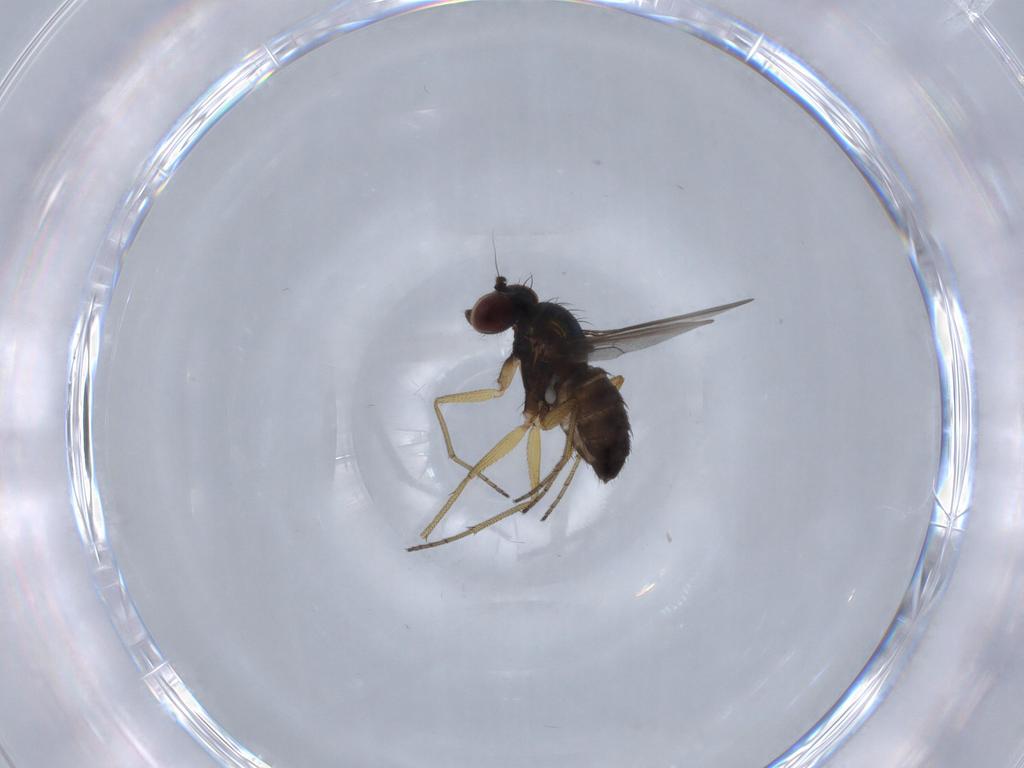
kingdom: Animalia
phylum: Arthropoda
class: Insecta
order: Diptera
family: Dolichopodidae
